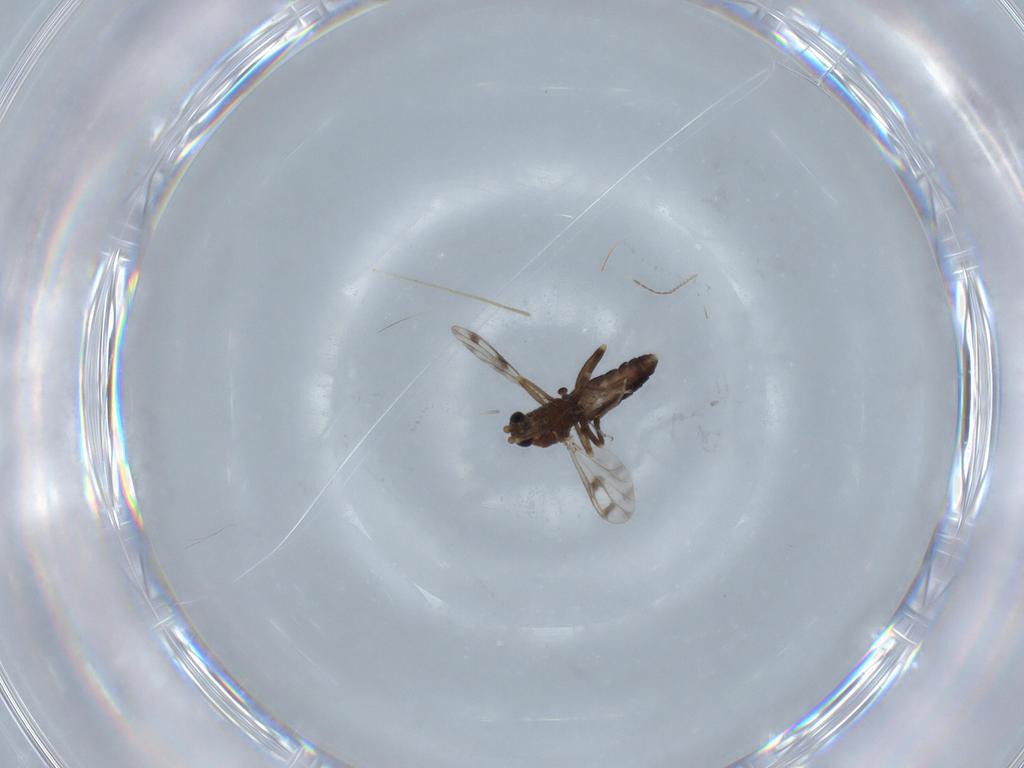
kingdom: Animalia
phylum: Arthropoda
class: Insecta
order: Diptera
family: Chironomidae
